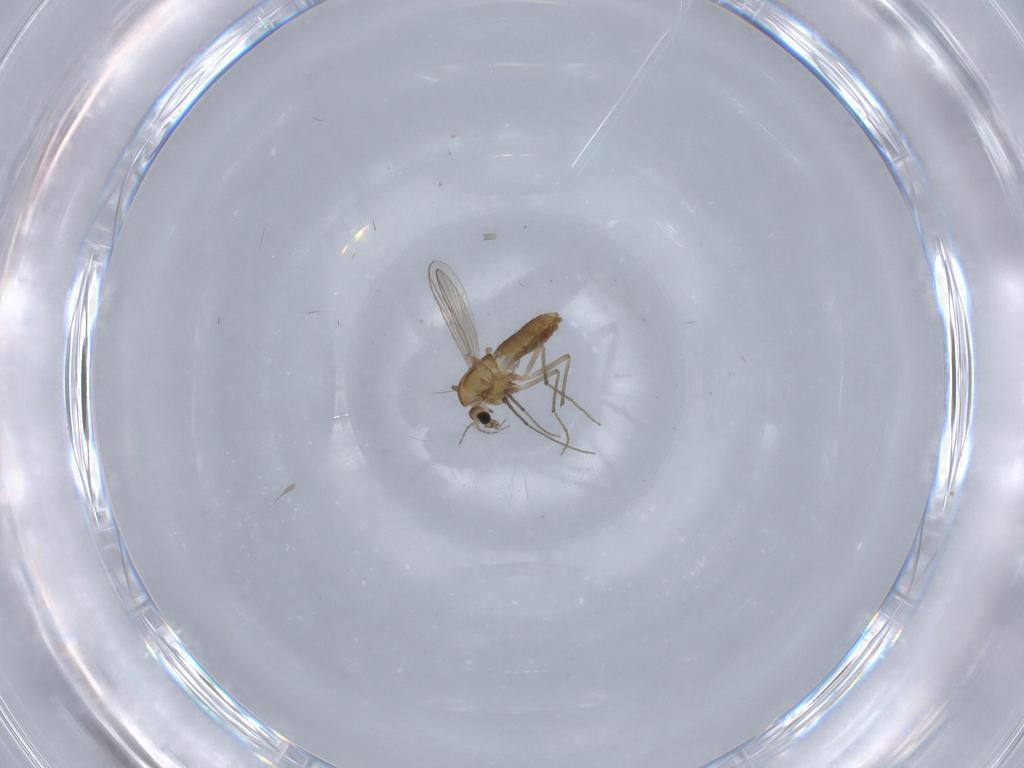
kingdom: Animalia
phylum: Arthropoda
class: Insecta
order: Diptera
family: Chironomidae
